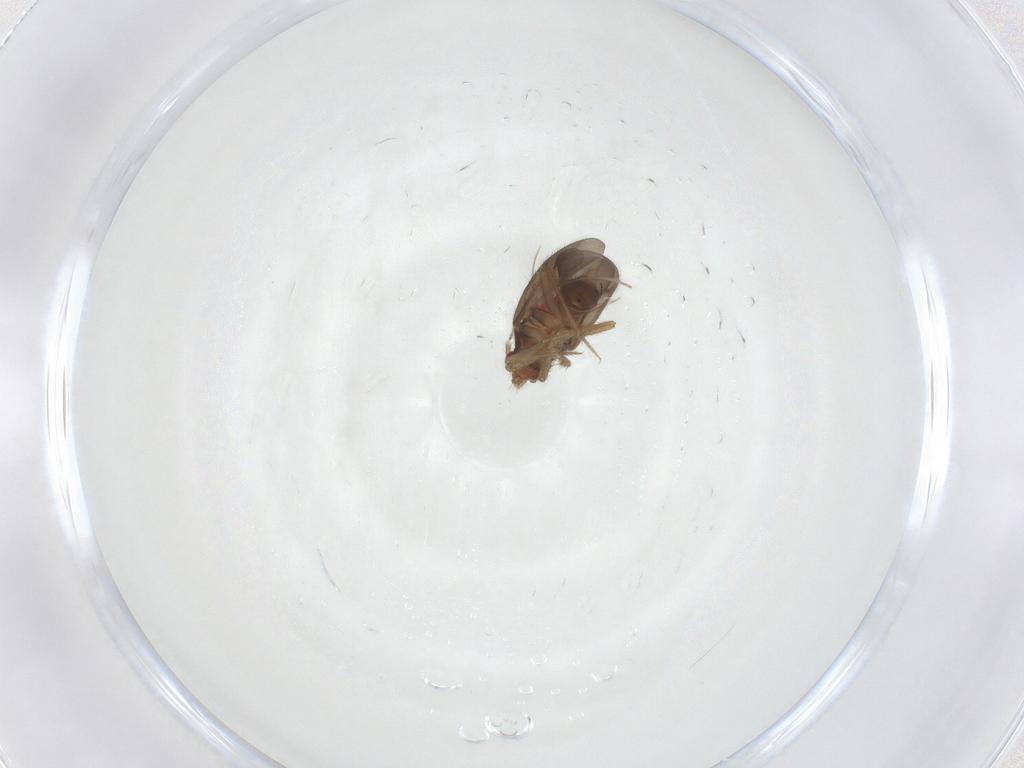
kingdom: Animalia
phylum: Arthropoda
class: Insecta
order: Hemiptera
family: Ceratocombidae
